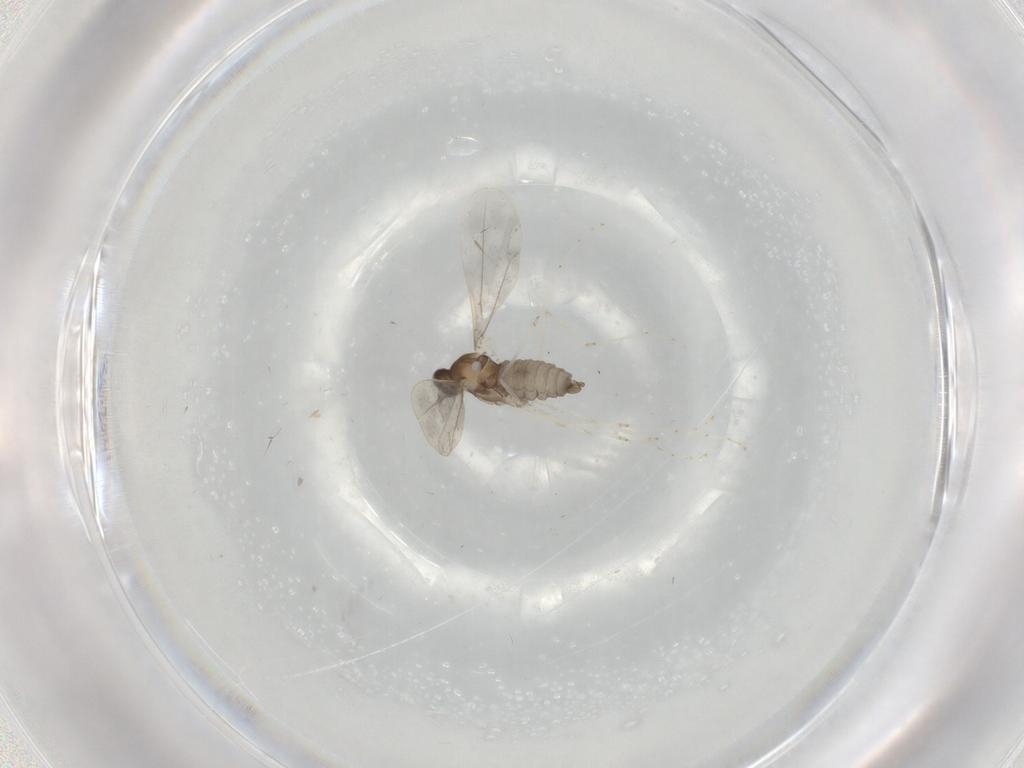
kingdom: Animalia
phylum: Arthropoda
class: Insecta
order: Diptera
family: Cecidomyiidae
